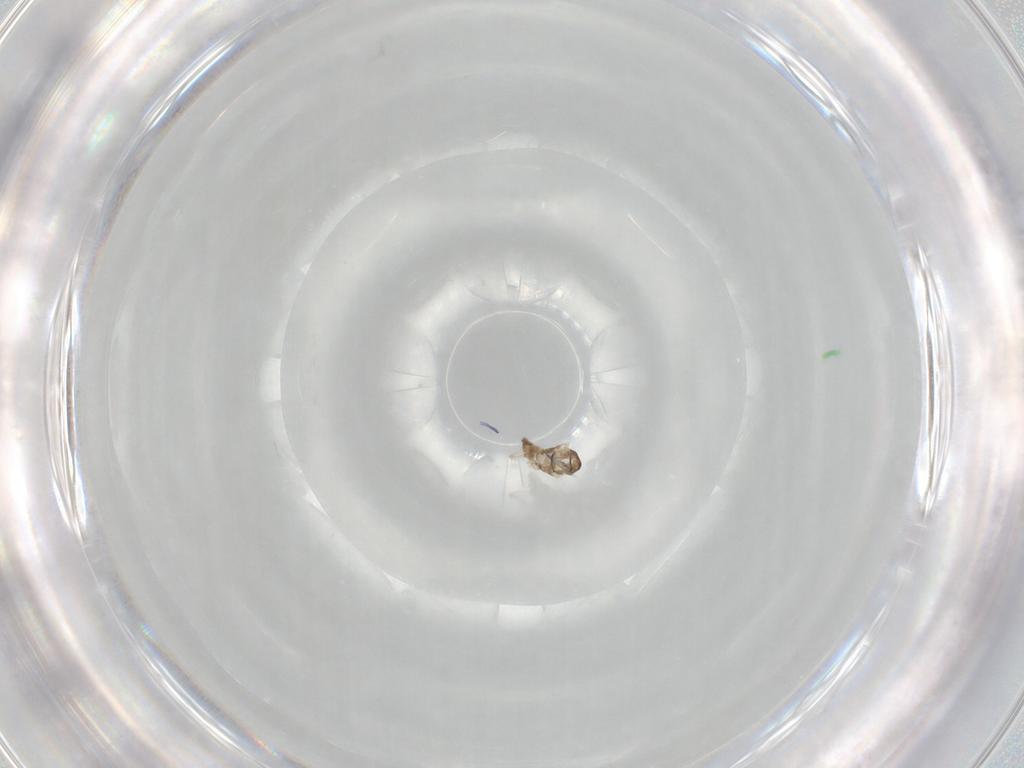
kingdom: Animalia
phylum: Arthropoda
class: Insecta
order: Diptera
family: Cecidomyiidae
